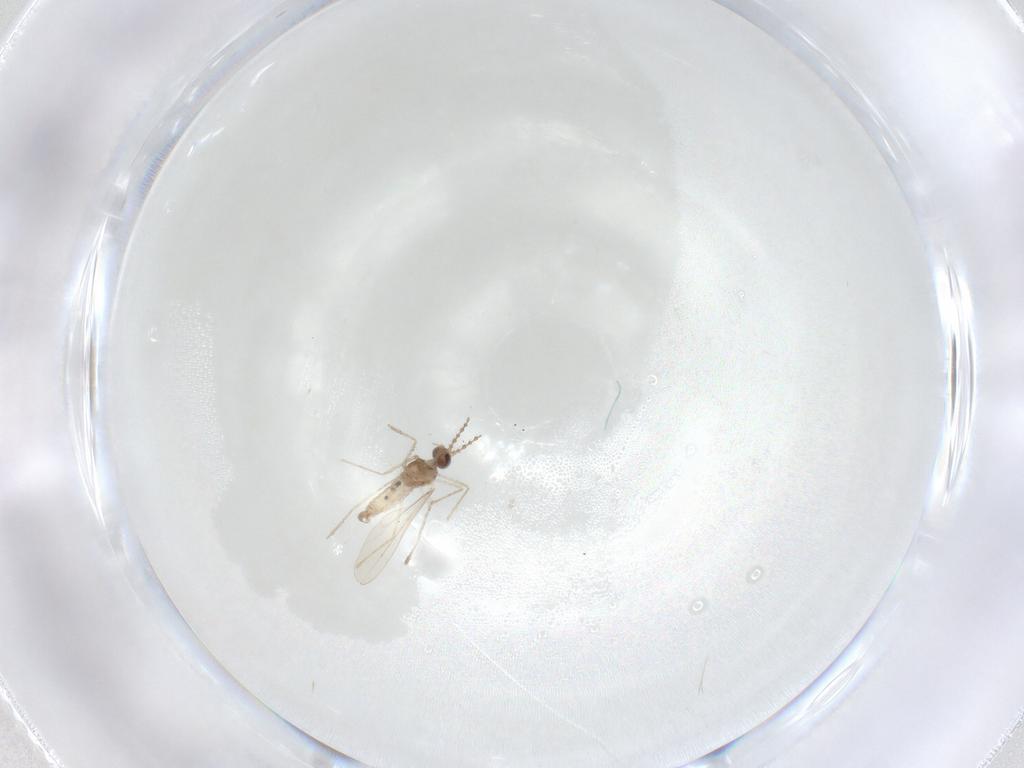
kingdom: Animalia
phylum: Arthropoda
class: Insecta
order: Diptera
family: Cecidomyiidae
